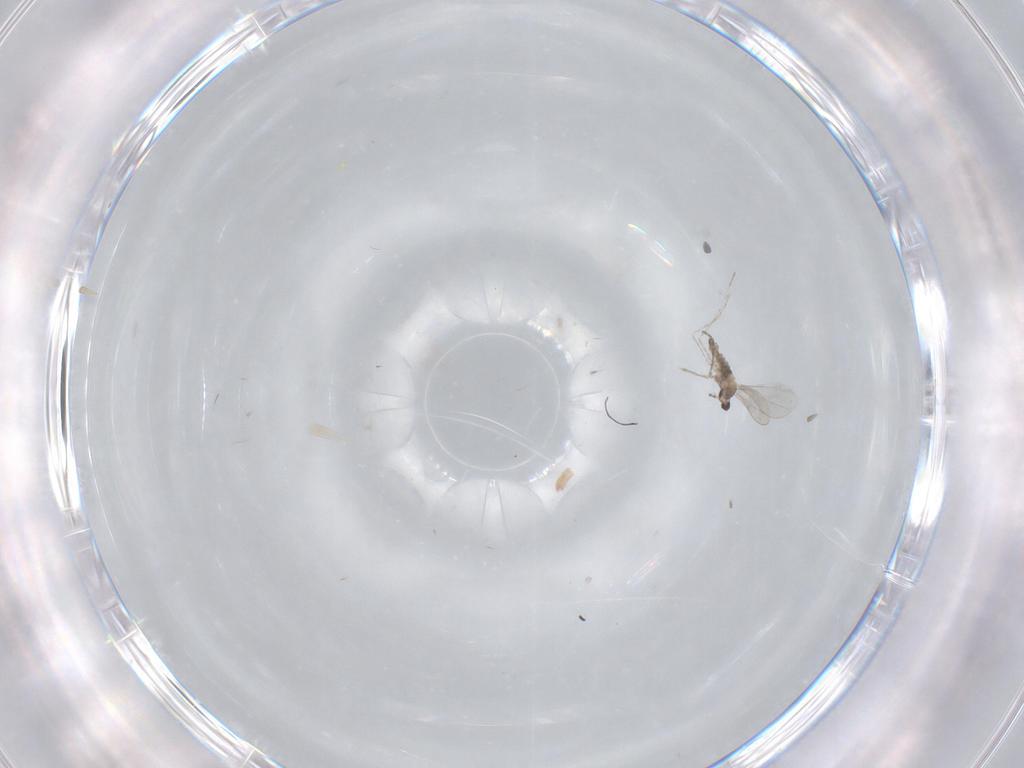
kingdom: Animalia
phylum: Arthropoda
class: Insecta
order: Diptera
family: Cecidomyiidae
